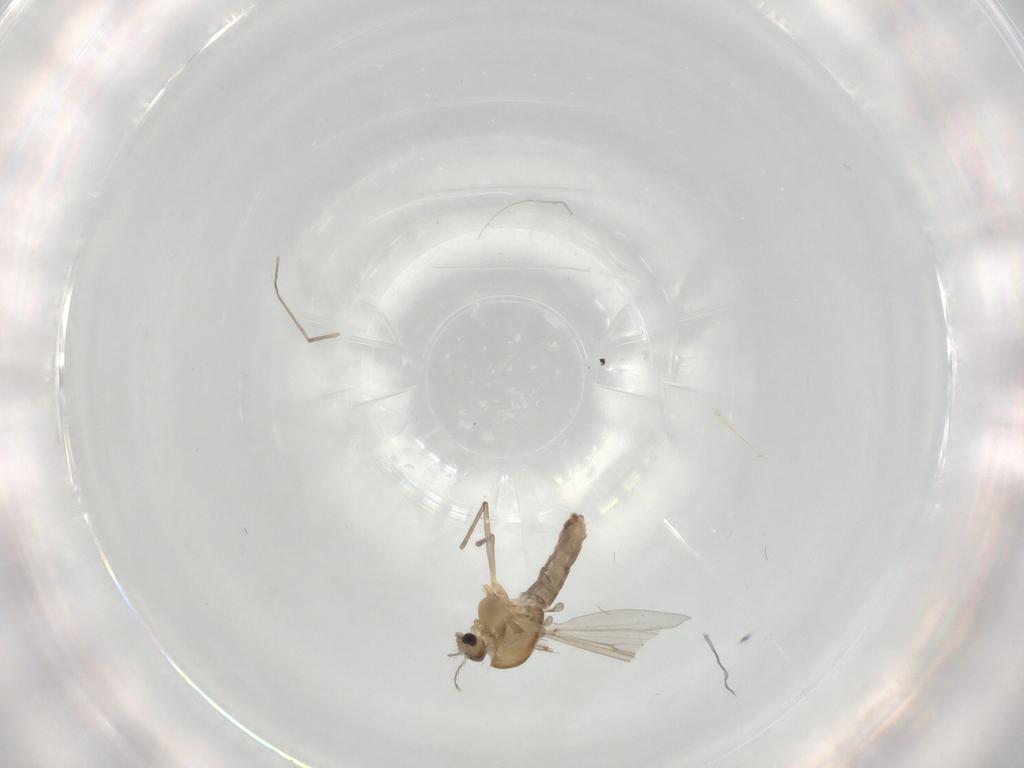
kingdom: Animalia
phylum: Arthropoda
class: Insecta
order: Diptera
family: Chironomidae
